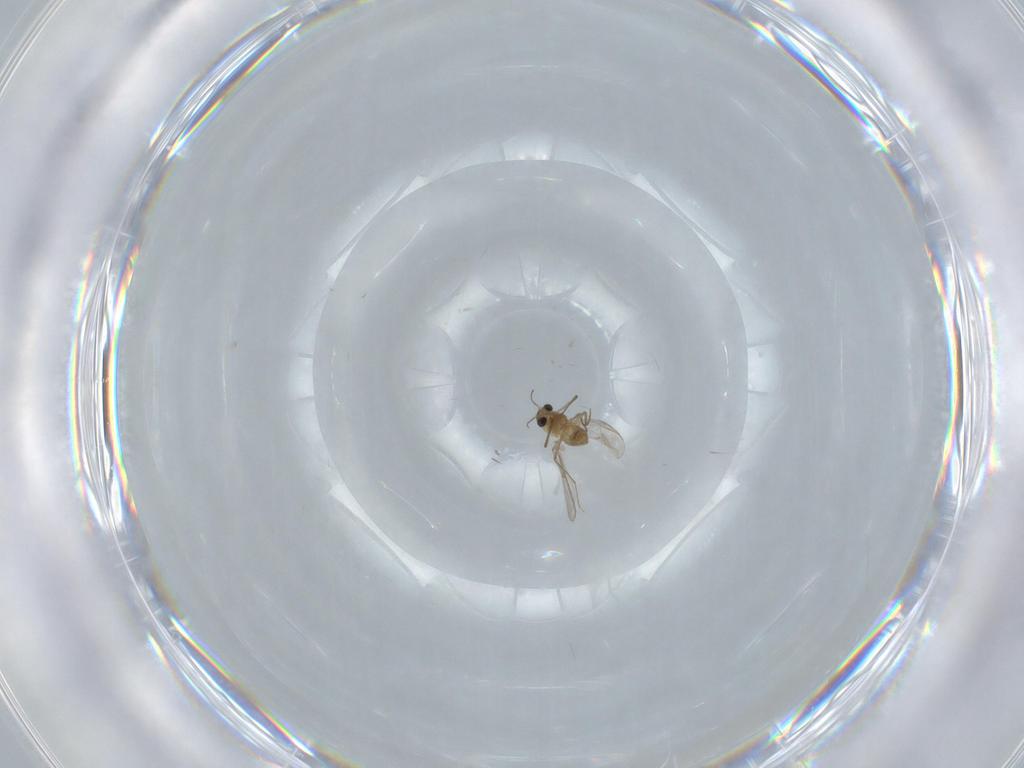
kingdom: Animalia
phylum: Arthropoda
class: Insecta
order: Diptera
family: Chironomidae
